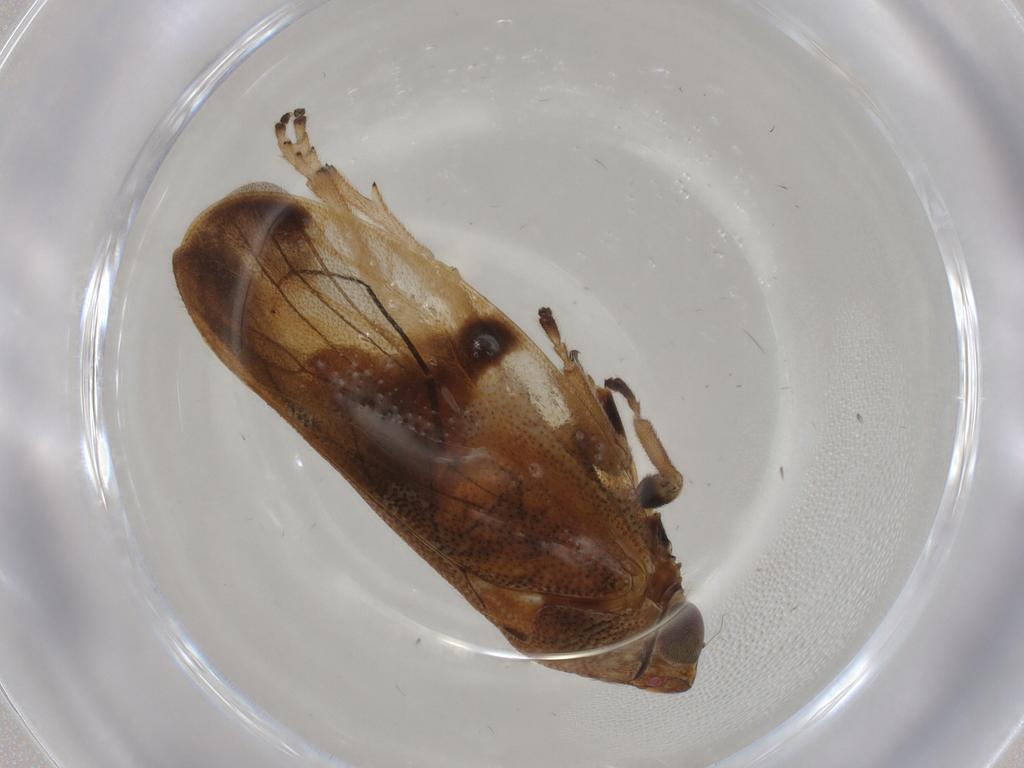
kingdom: Animalia
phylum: Arthropoda
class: Insecta
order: Hemiptera
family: Aphrophoridae
